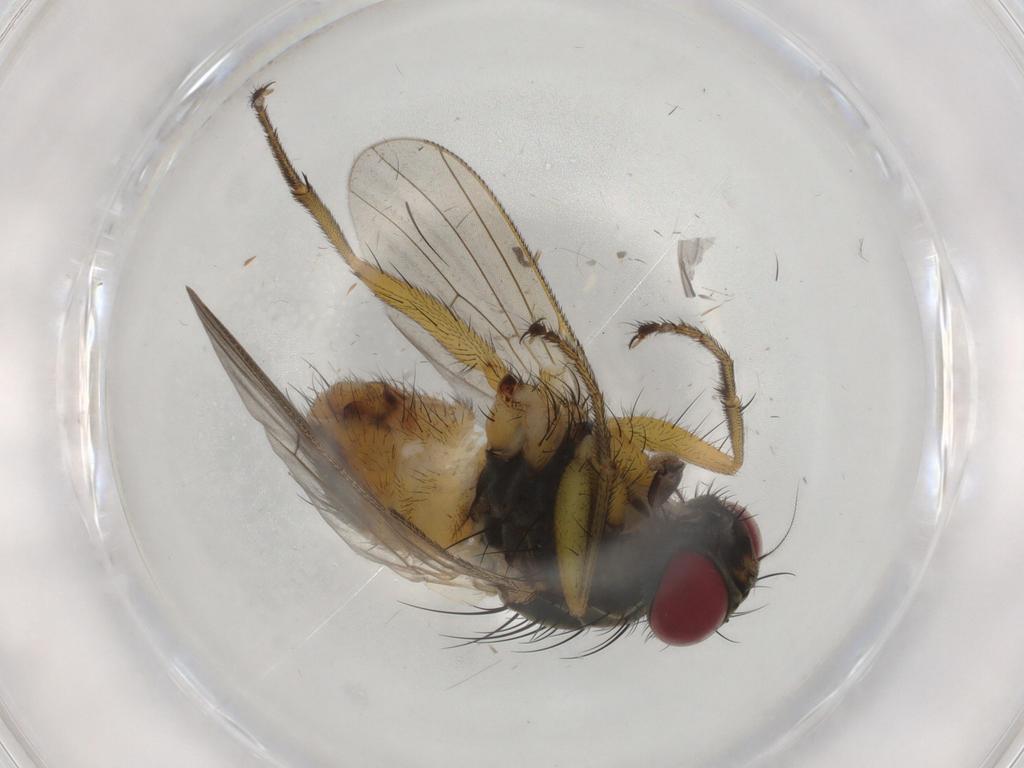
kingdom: Animalia
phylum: Arthropoda
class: Insecta
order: Diptera
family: Muscidae
